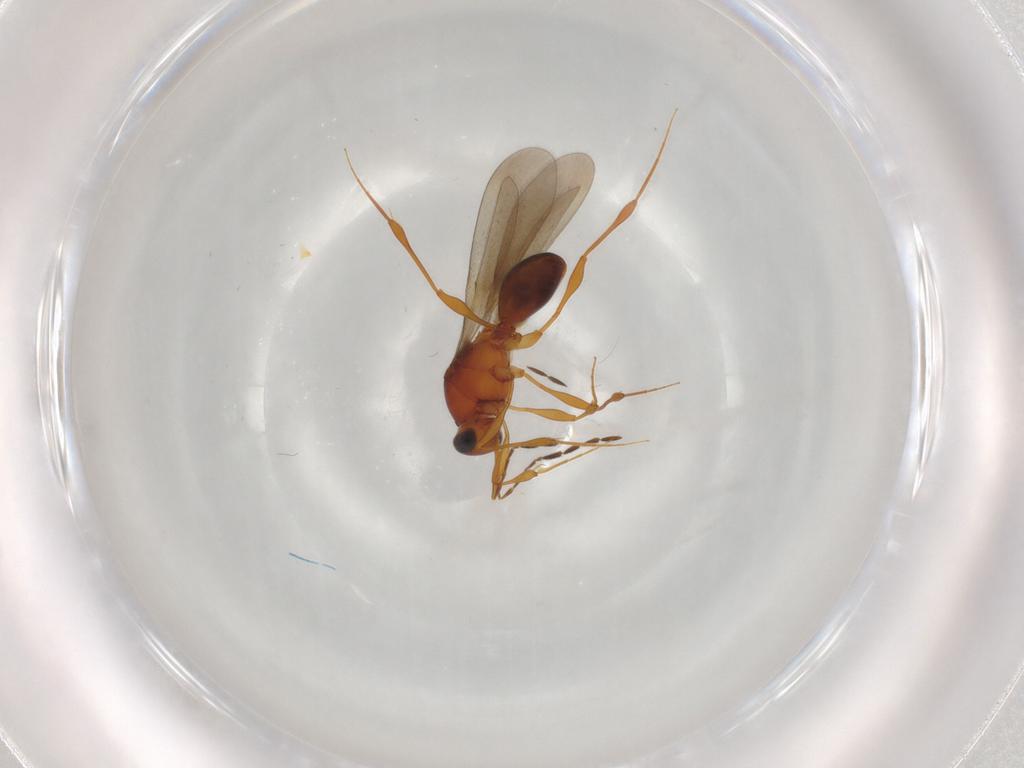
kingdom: Animalia
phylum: Arthropoda
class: Insecta
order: Hymenoptera
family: Platygastridae
